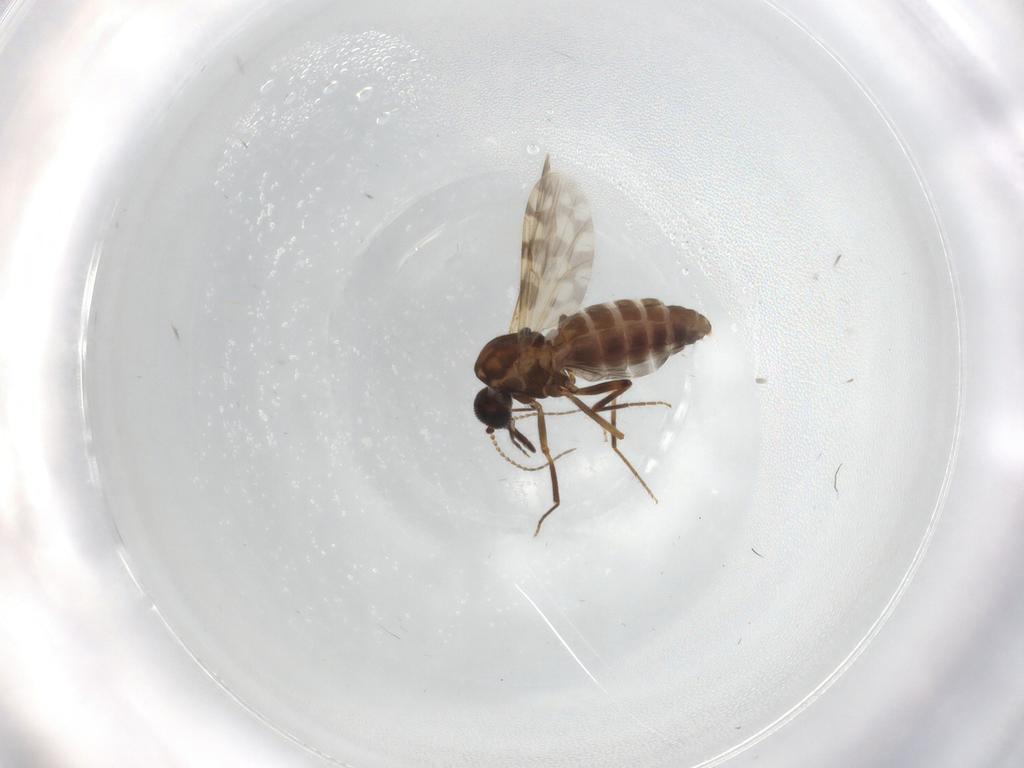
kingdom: Animalia
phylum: Arthropoda
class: Insecta
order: Diptera
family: Ceratopogonidae
